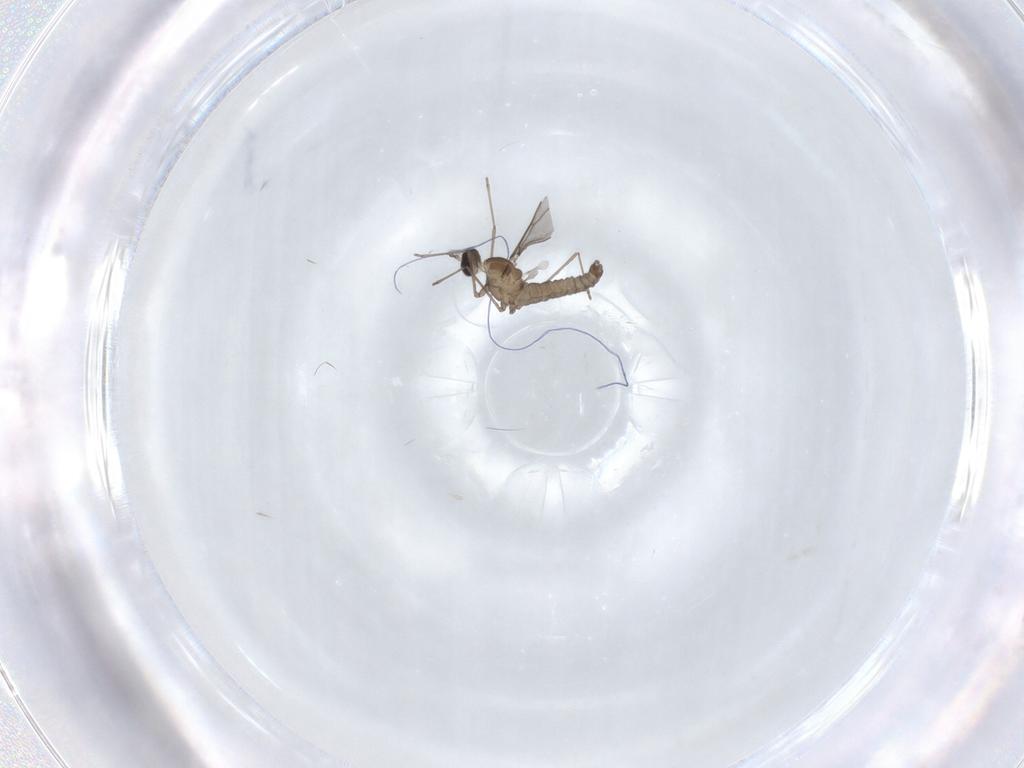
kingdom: Animalia
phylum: Arthropoda
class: Insecta
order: Diptera
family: Cecidomyiidae
